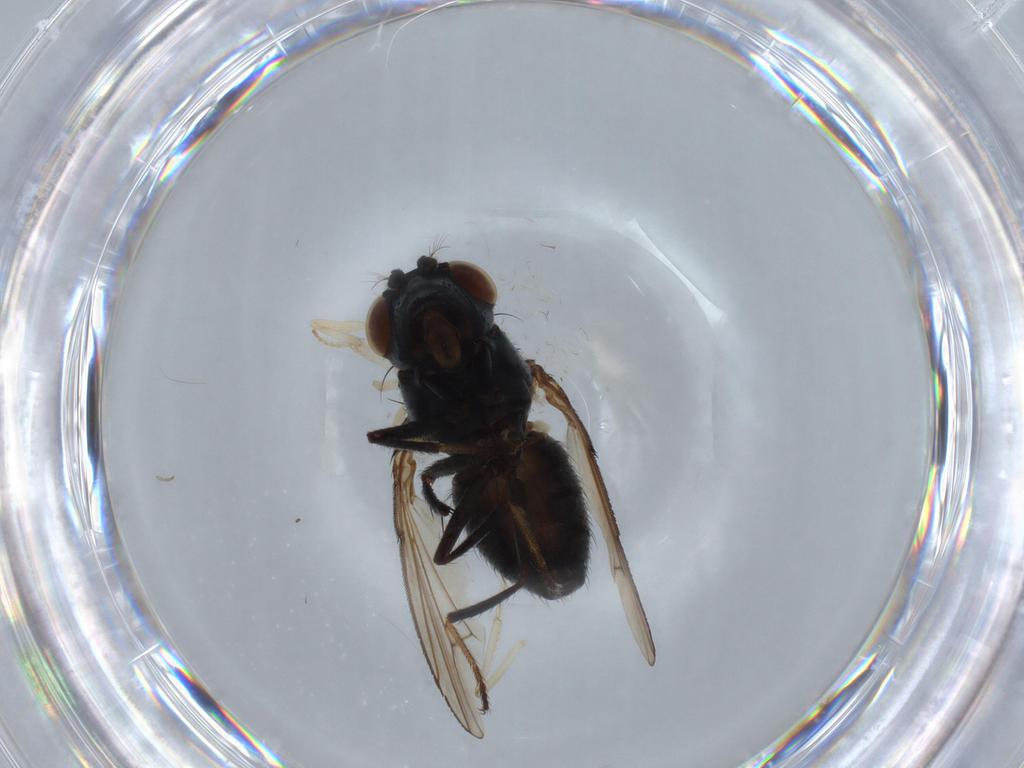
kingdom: Animalia
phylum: Arthropoda
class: Insecta
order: Diptera
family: Ephydridae
